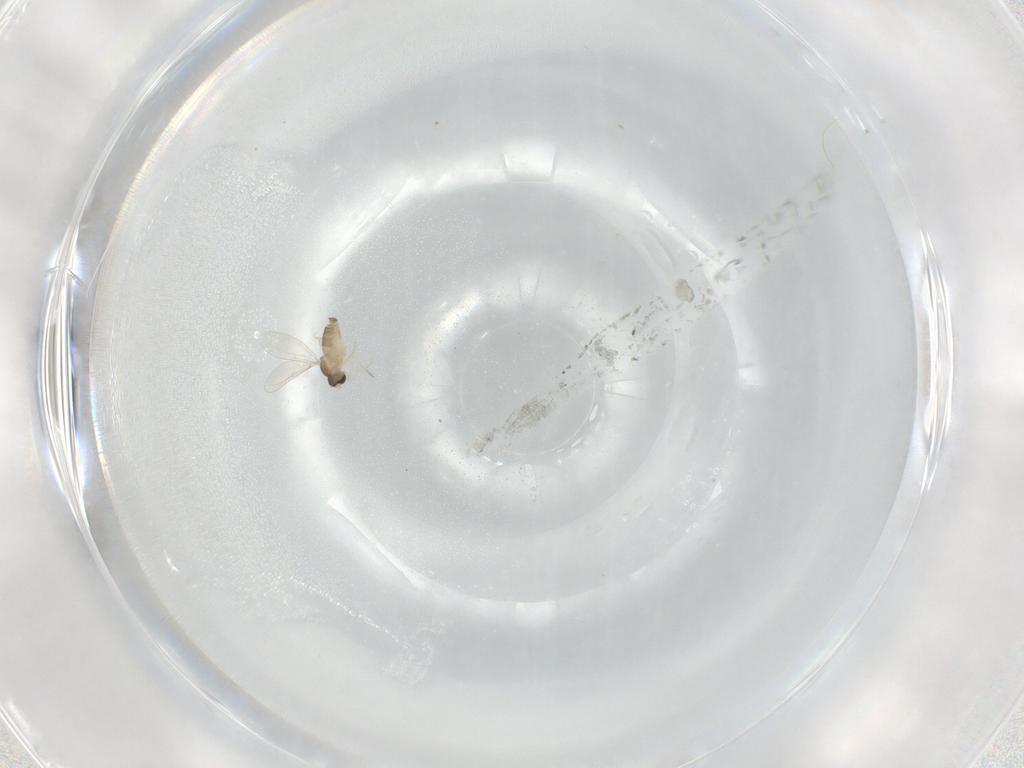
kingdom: Animalia
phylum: Arthropoda
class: Insecta
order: Diptera
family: Cecidomyiidae
